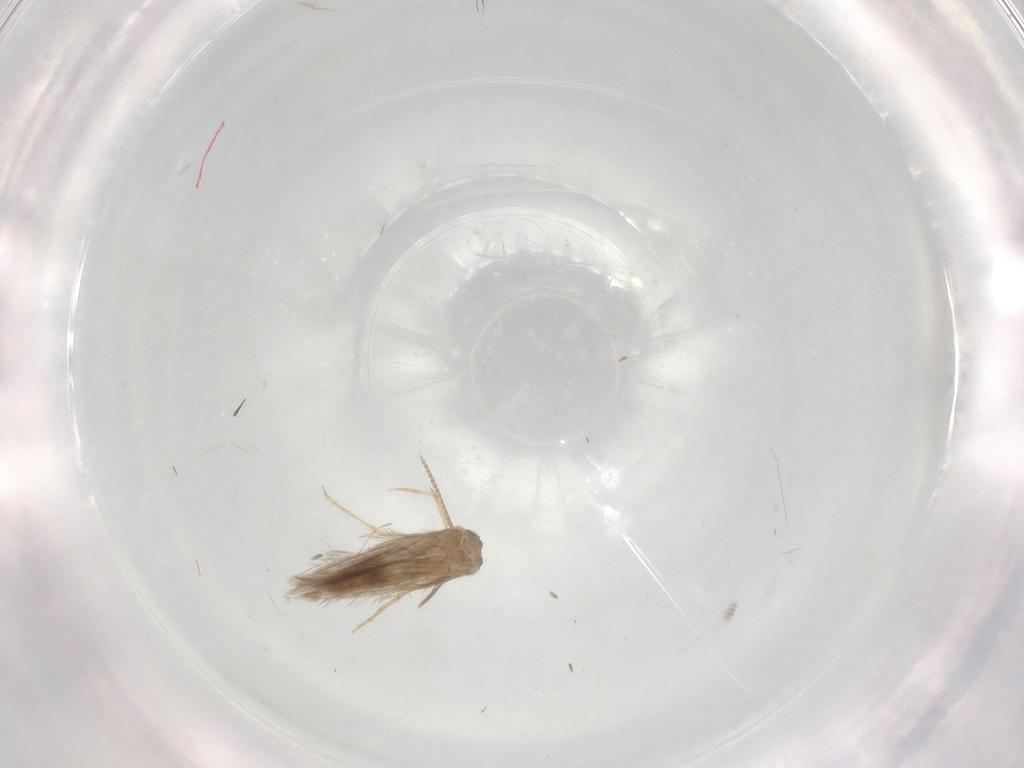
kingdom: Animalia
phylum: Arthropoda
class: Insecta
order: Trichoptera
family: Hydroptilidae
